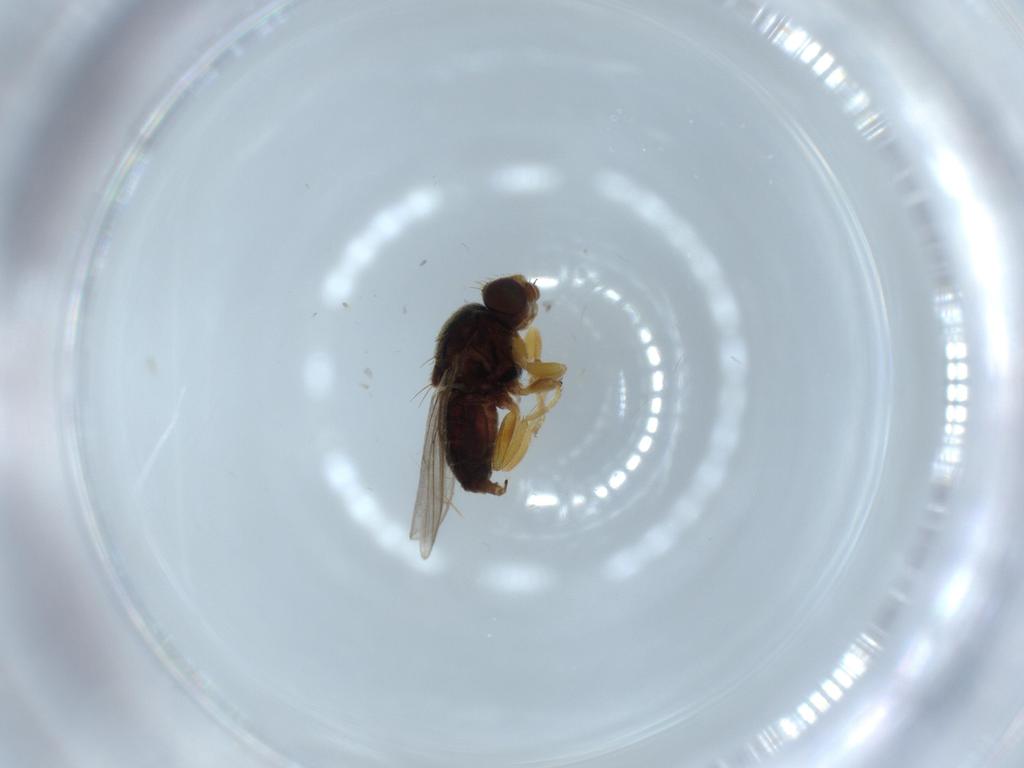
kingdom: Animalia
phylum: Arthropoda
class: Insecta
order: Diptera
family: Chloropidae
